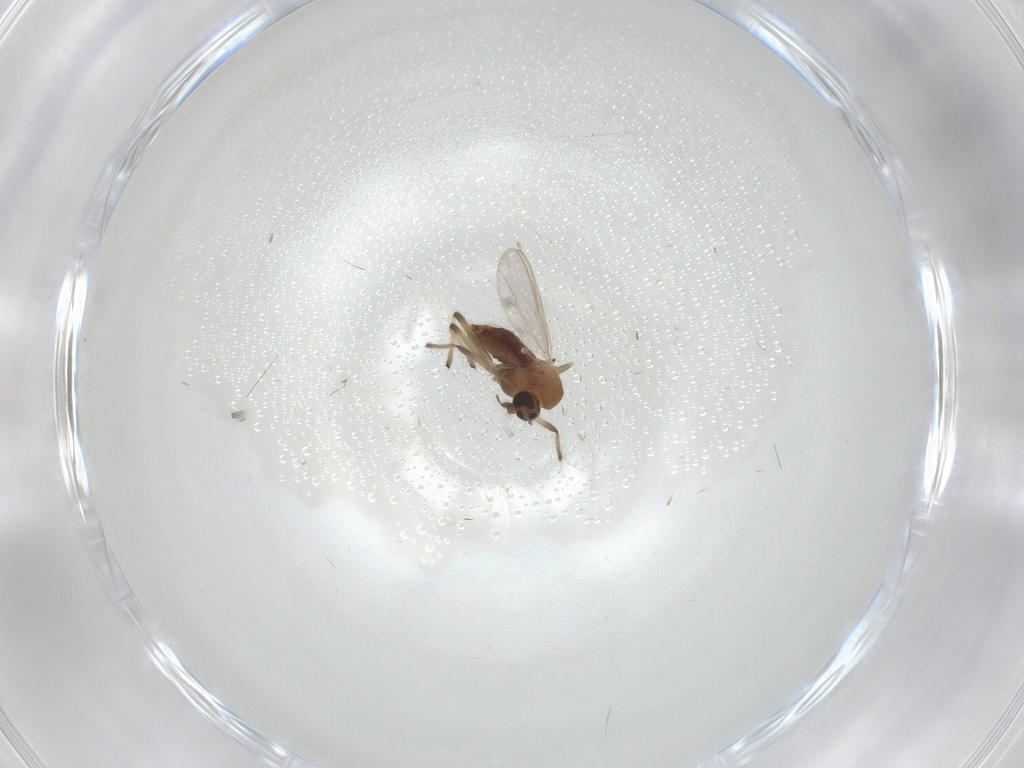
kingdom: Animalia
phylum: Arthropoda
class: Insecta
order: Diptera
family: Chironomidae
